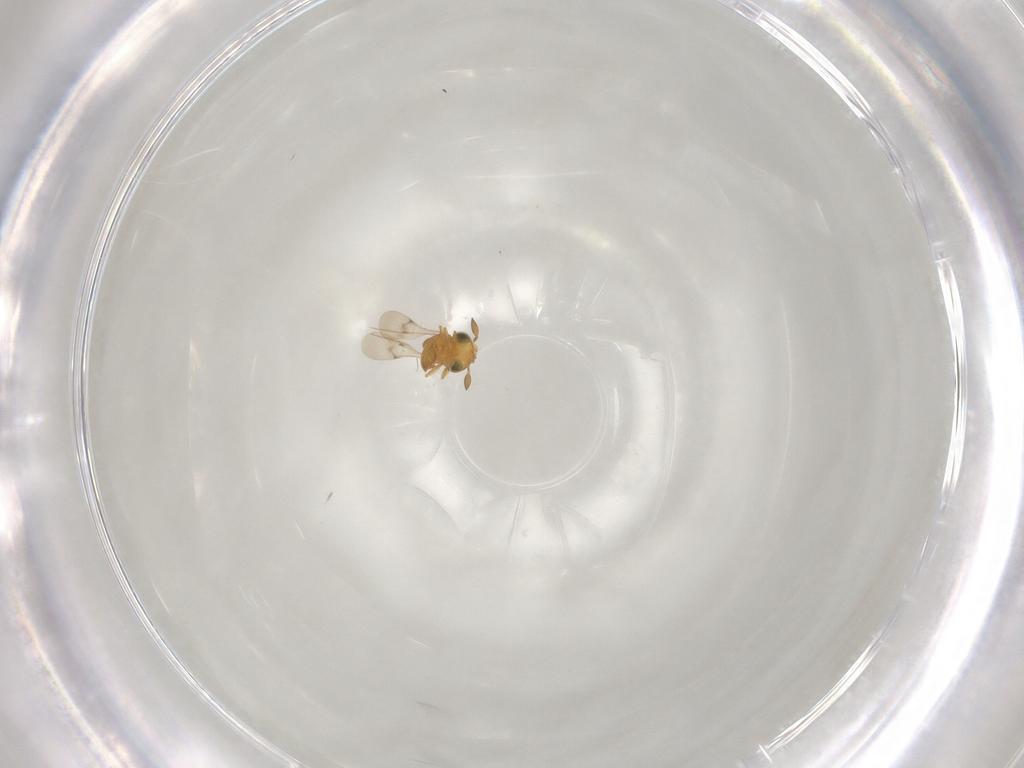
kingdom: Animalia
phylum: Arthropoda
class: Insecta
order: Hymenoptera
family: Scelionidae
